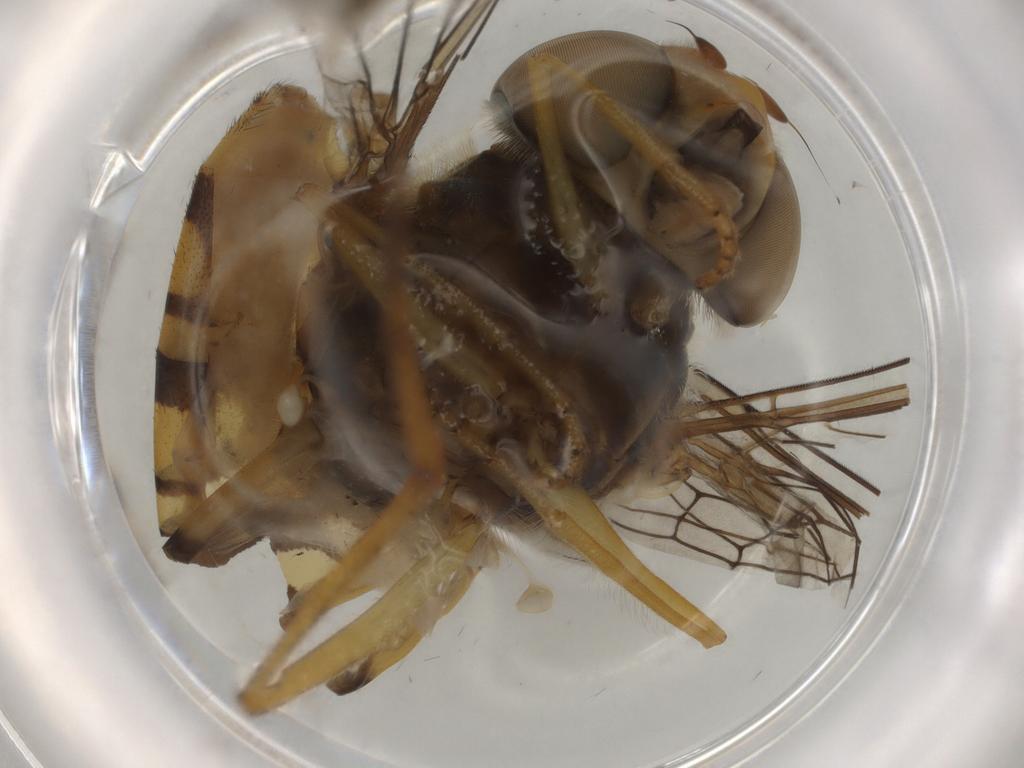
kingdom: Animalia
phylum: Arthropoda
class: Insecta
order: Diptera
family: Syrphidae
